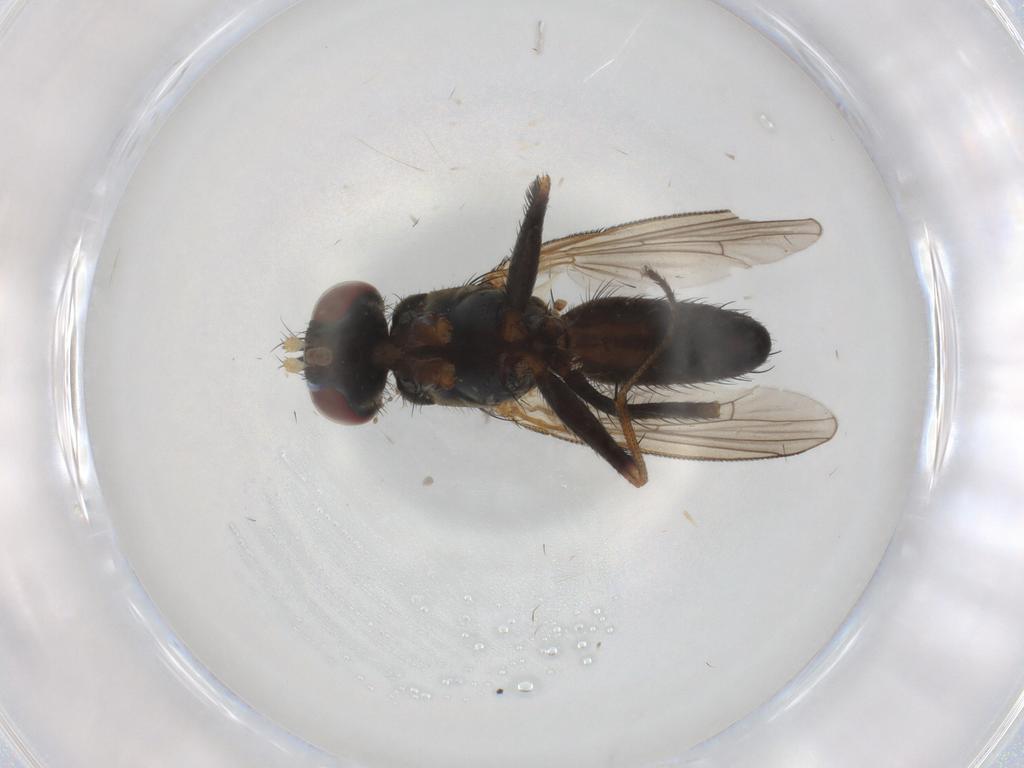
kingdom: Animalia
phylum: Arthropoda
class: Insecta
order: Diptera
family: Muscidae
